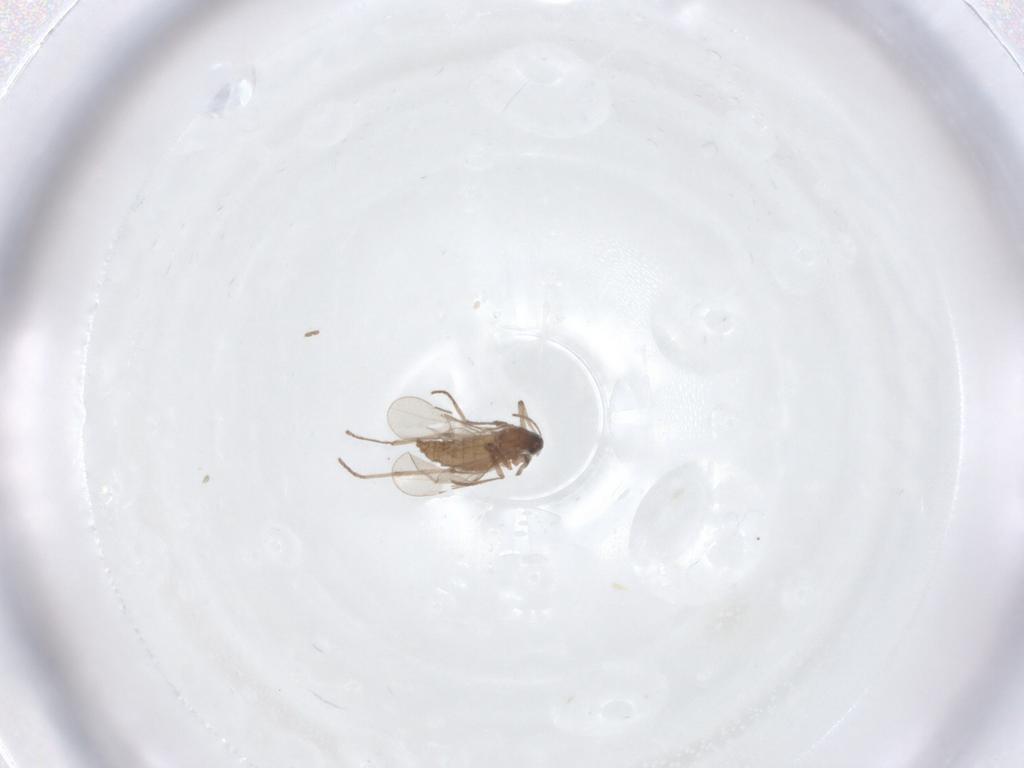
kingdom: Animalia
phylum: Arthropoda
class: Insecta
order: Diptera
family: Cecidomyiidae
